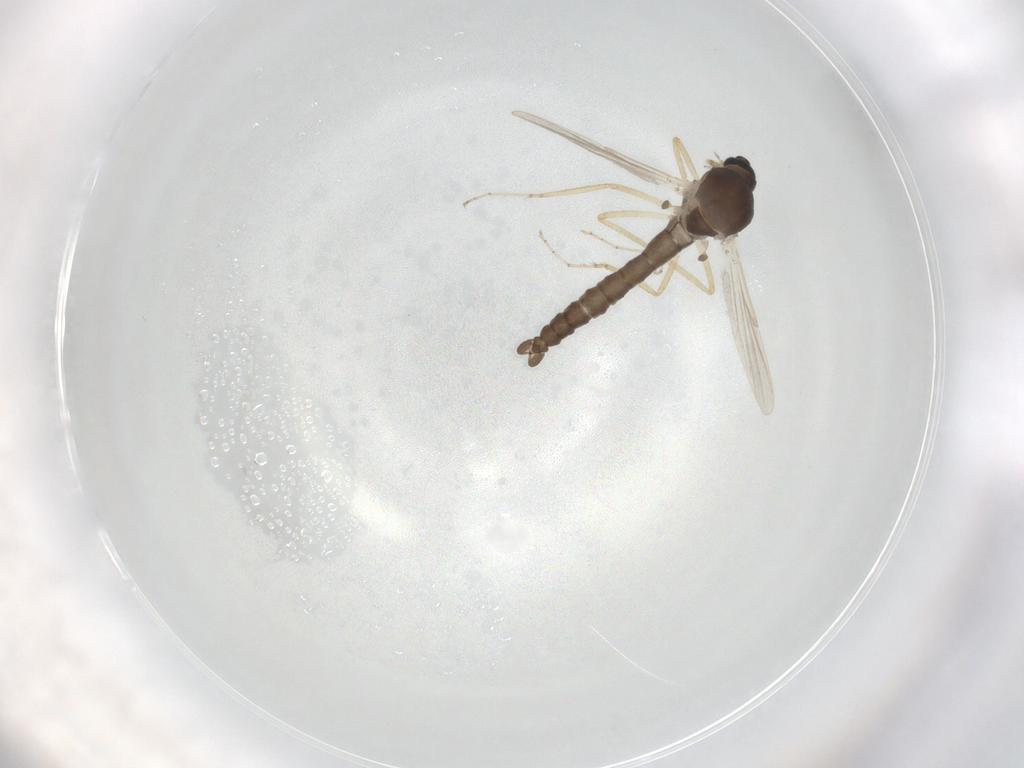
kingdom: Animalia
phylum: Arthropoda
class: Insecta
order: Diptera
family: Ceratopogonidae
